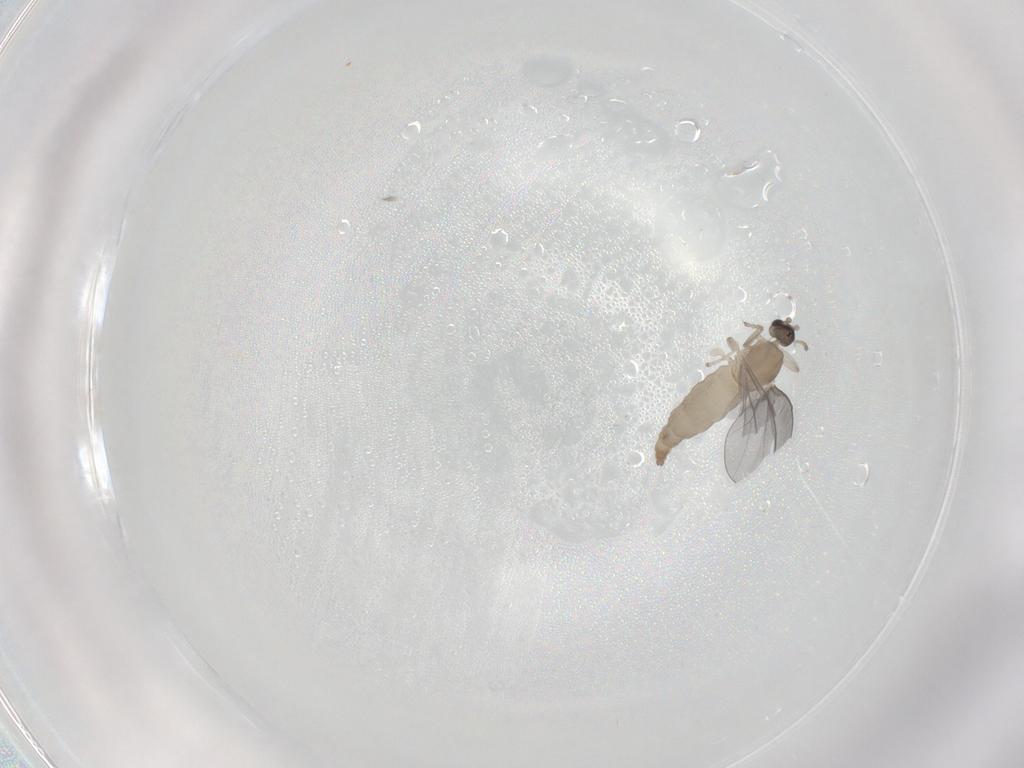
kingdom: Animalia
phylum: Arthropoda
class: Insecta
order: Diptera
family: Cecidomyiidae
